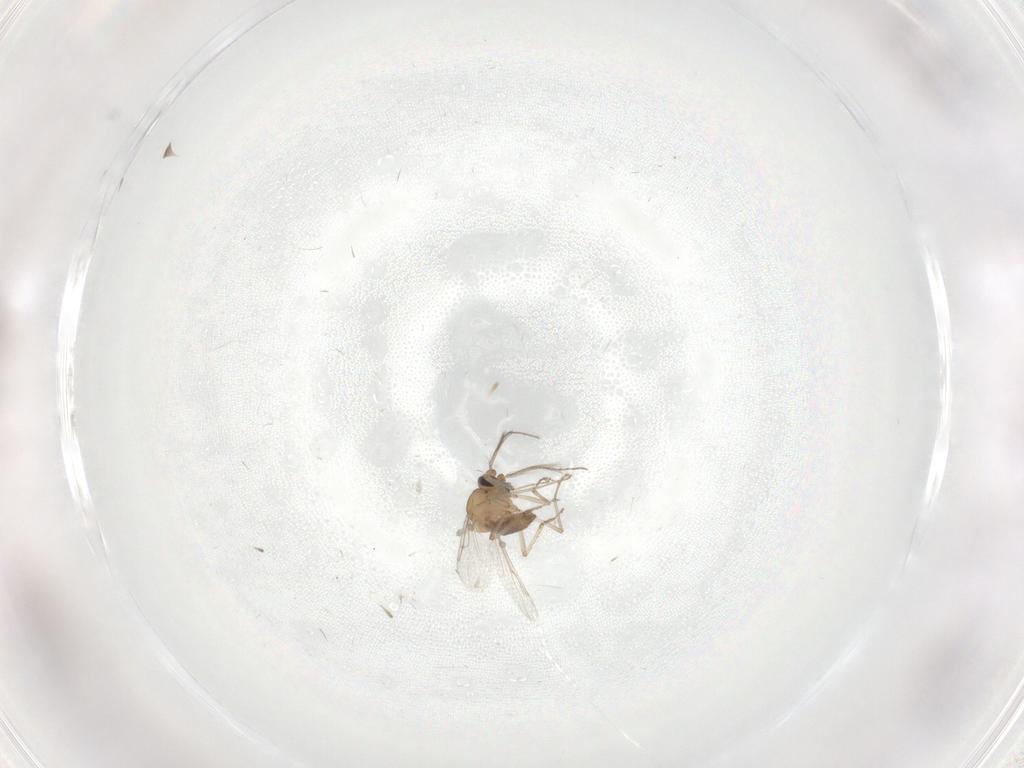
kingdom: Animalia
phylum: Arthropoda
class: Insecta
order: Diptera
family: Ceratopogonidae
